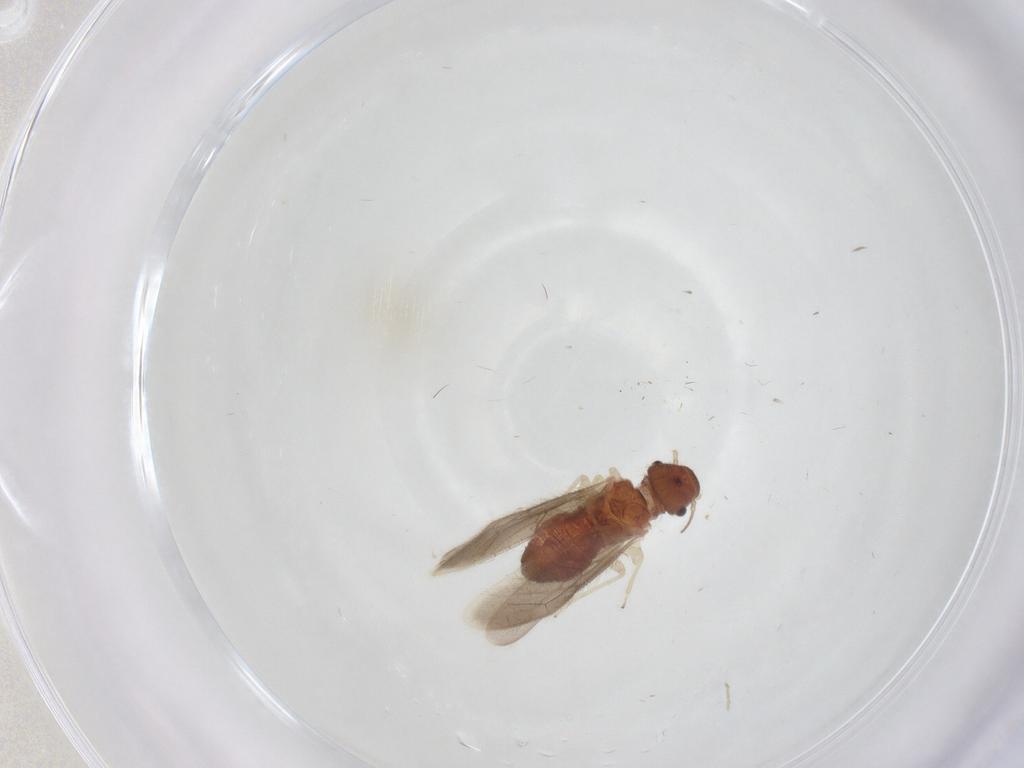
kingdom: Animalia
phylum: Arthropoda
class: Insecta
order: Psocodea
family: Archipsocidae
